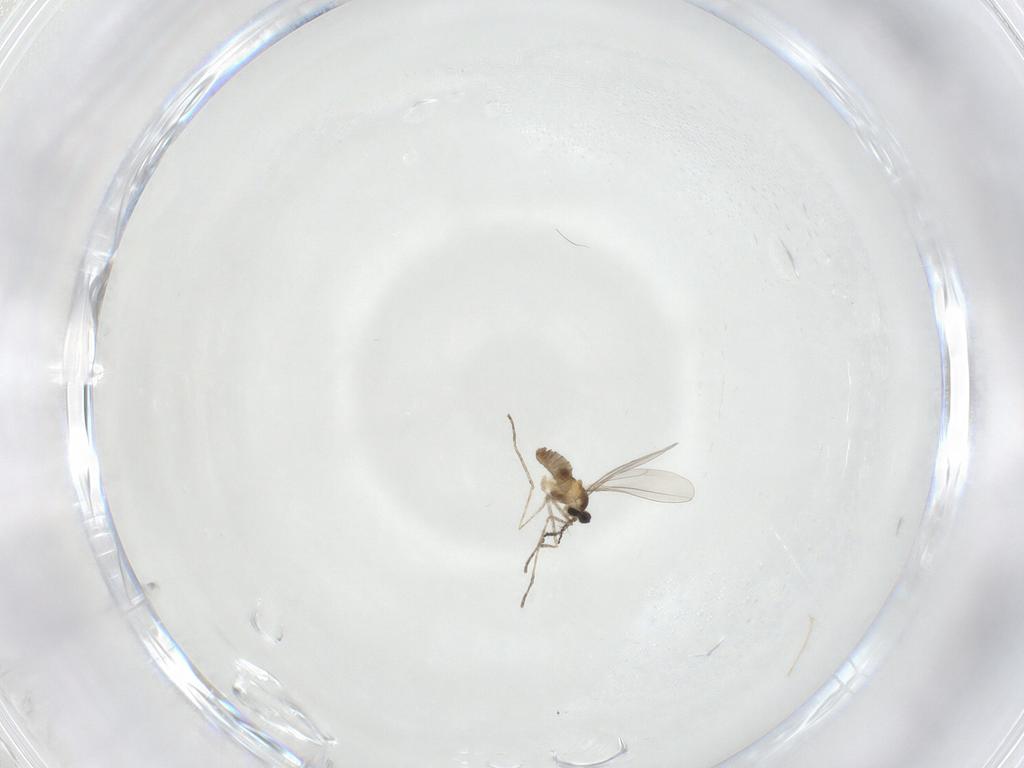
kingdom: Animalia
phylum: Arthropoda
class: Insecta
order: Diptera
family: Cecidomyiidae
